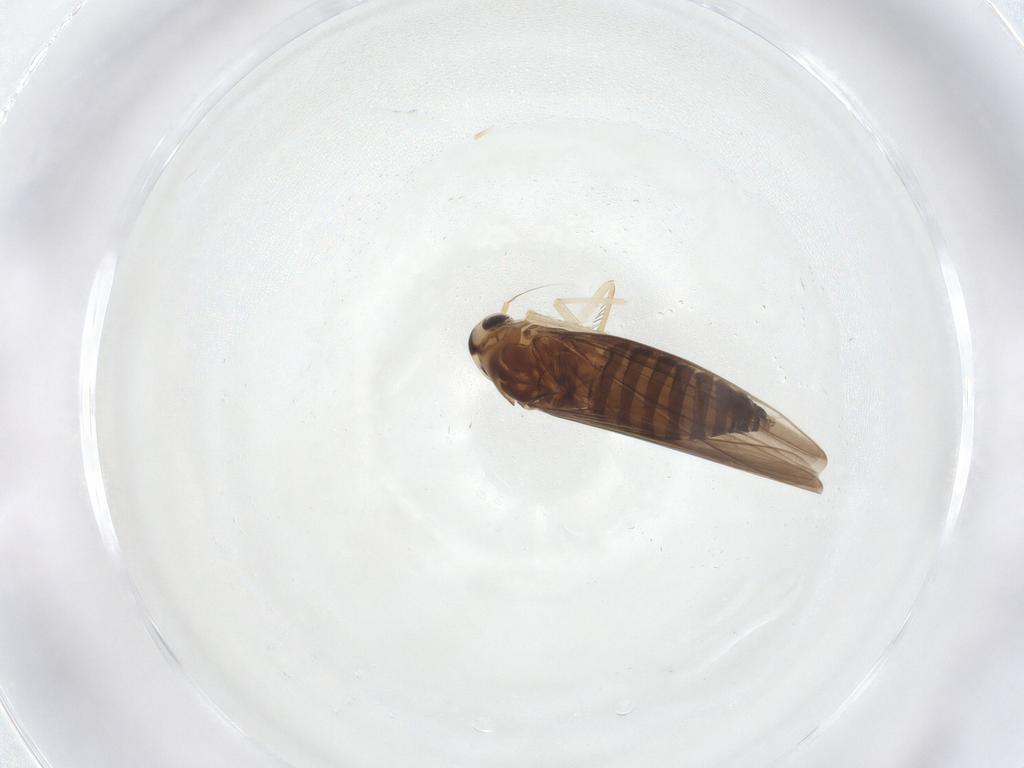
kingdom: Animalia
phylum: Arthropoda
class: Insecta
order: Hemiptera
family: Cicadellidae
